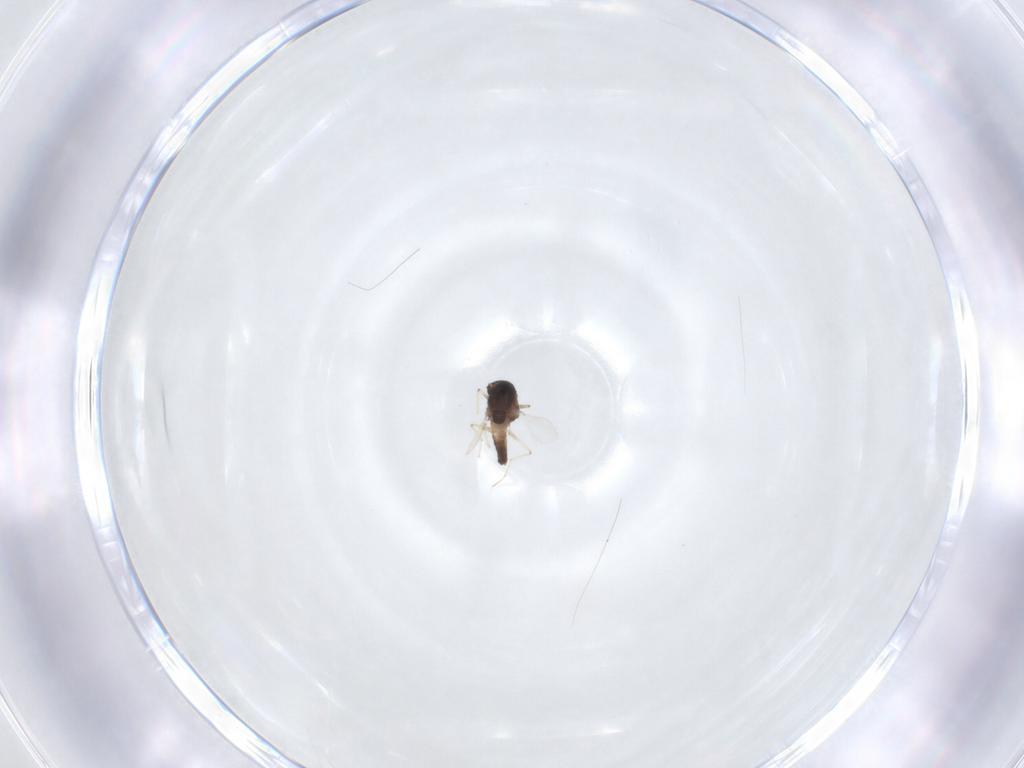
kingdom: Animalia
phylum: Arthropoda
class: Insecta
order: Diptera
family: Chironomidae
